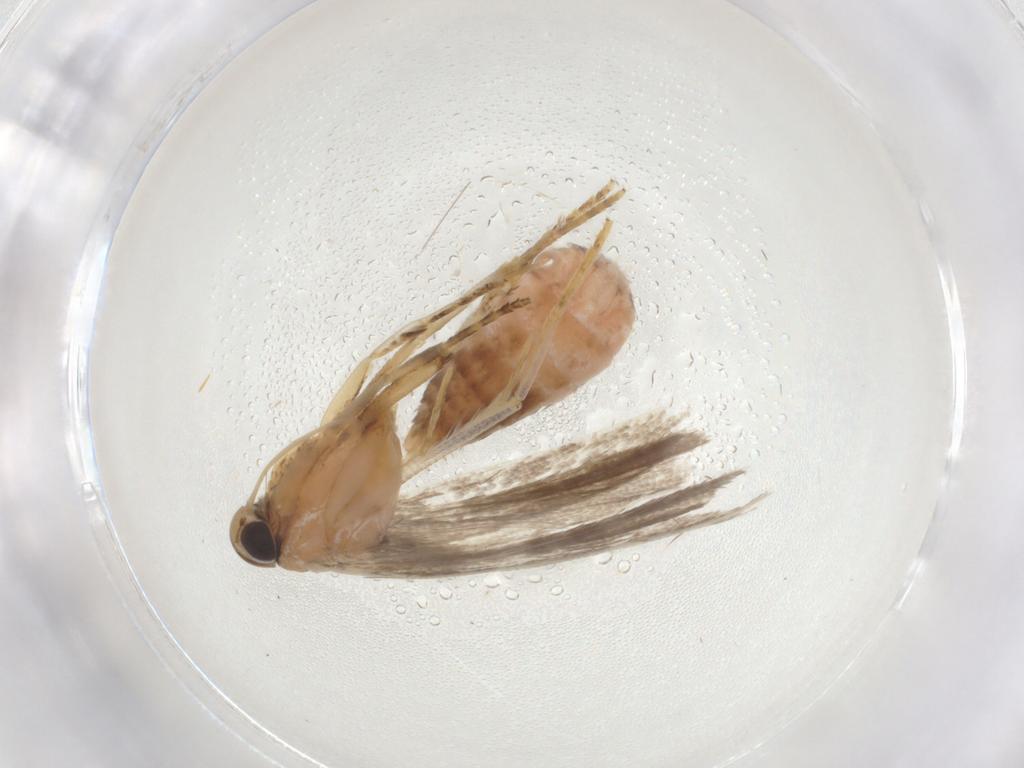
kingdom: Animalia
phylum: Arthropoda
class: Insecta
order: Lepidoptera
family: Gelechiidae
